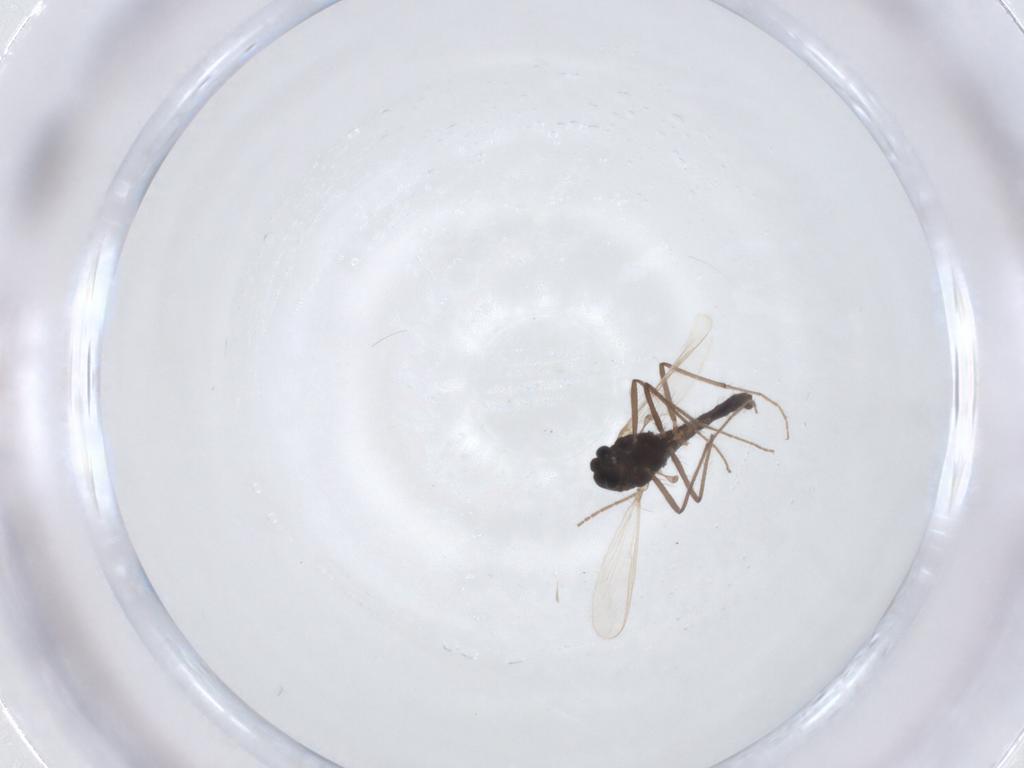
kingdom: Animalia
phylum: Arthropoda
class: Insecta
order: Diptera
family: Chironomidae
